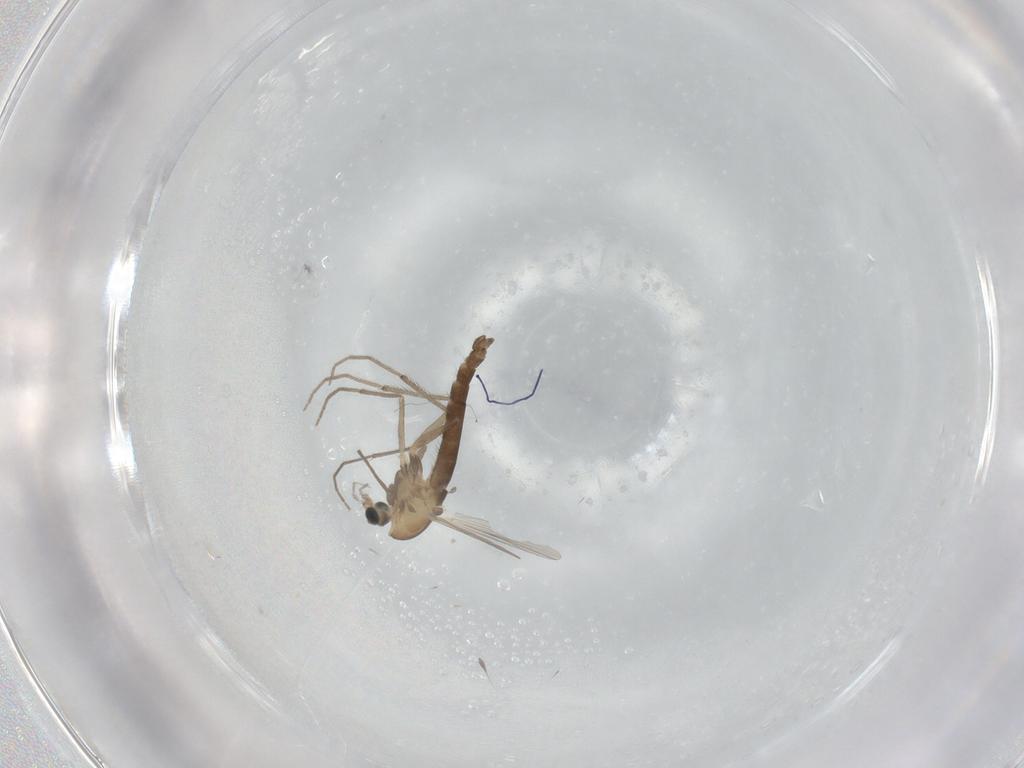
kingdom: Animalia
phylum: Arthropoda
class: Insecta
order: Diptera
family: Chironomidae
